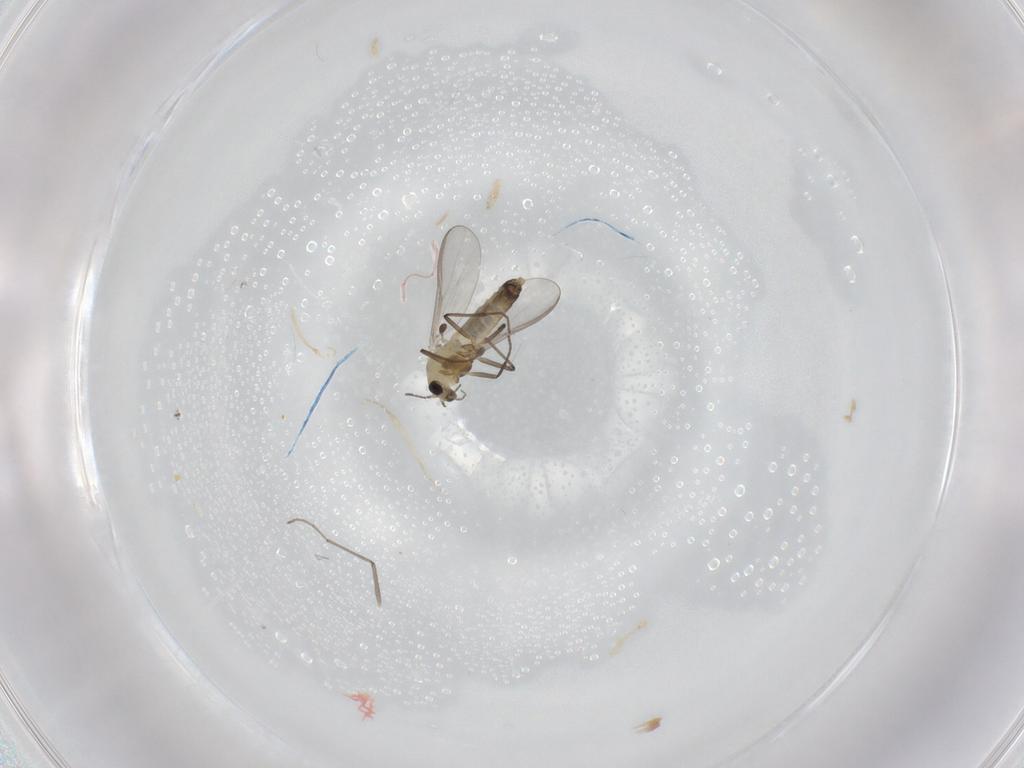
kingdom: Animalia
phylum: Arthropoda
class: Insecta
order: Diptera
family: Chironomidae
